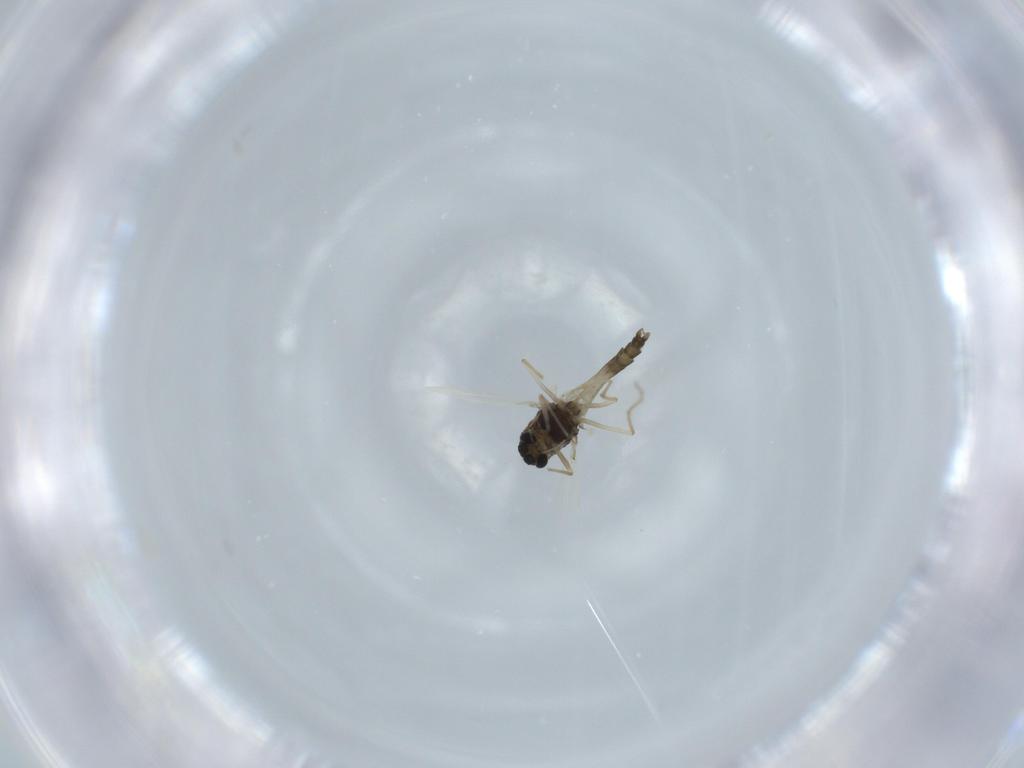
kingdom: Animalia
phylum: Arthropoda
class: Insecta
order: Diptera
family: Chironomidae
